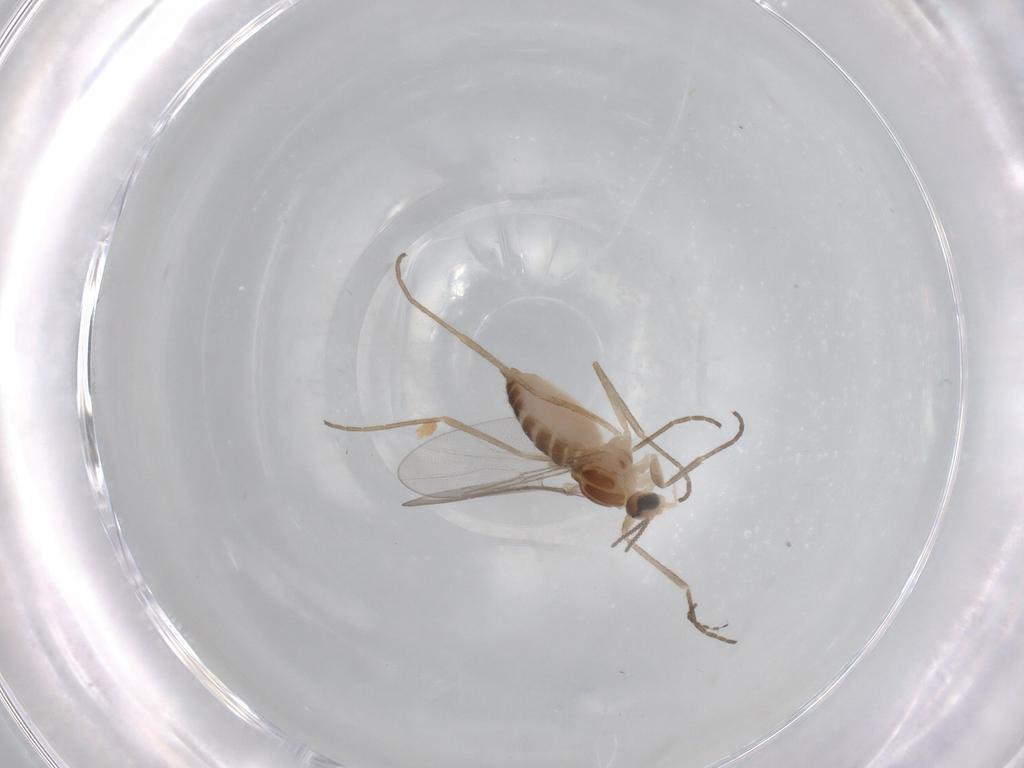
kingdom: Animalia
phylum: Arthropoda
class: Insecta
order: Diptera
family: Cecidomyiidae
